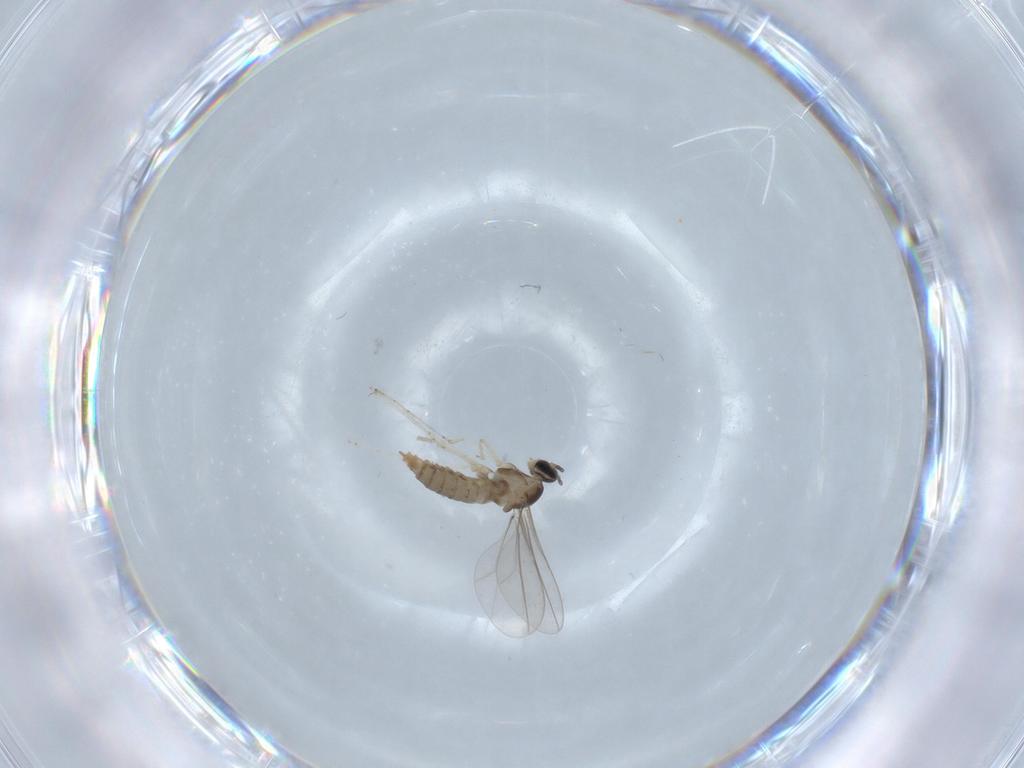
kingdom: Animalia
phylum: Arthropoda
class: Insecta
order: Diptera
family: Cecidomyiidae
